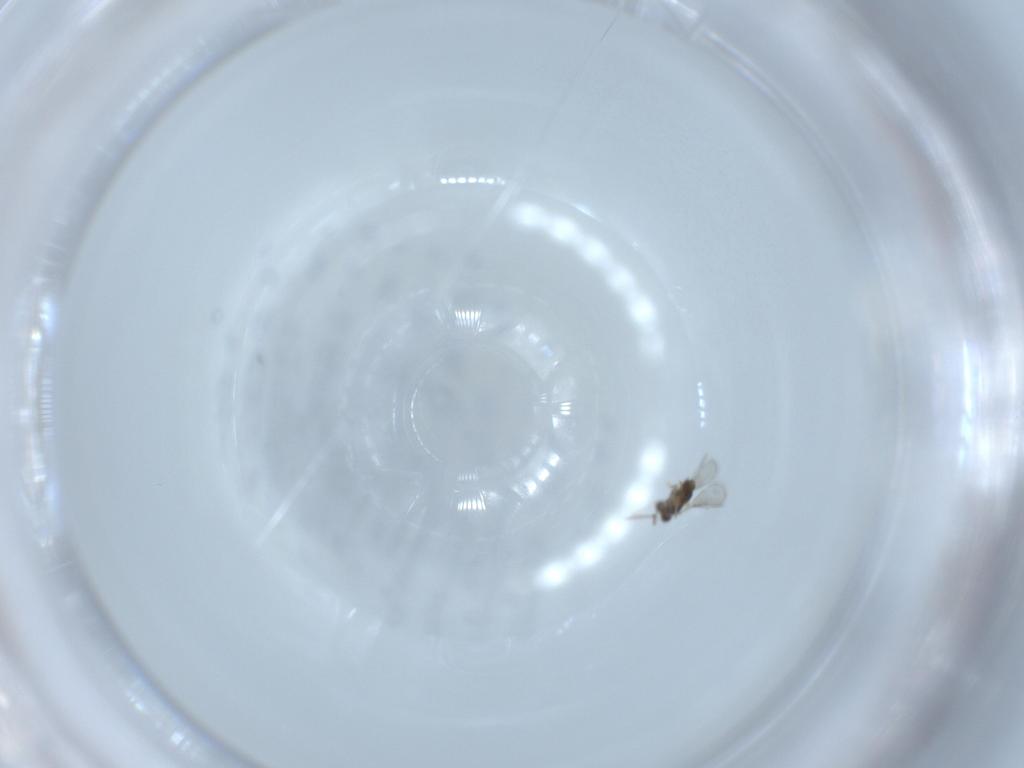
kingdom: Animalia
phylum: Arthropoda
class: Insecta
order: Hymenoptera
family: Aphelinidae
